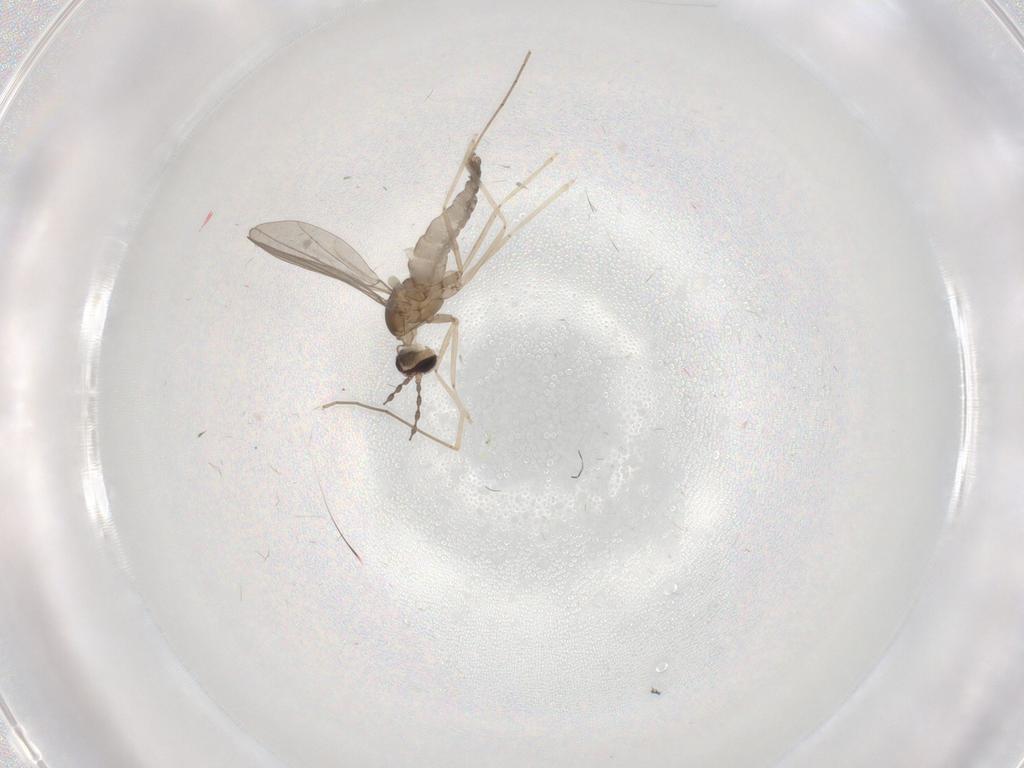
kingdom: Animalia
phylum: Arthropoda
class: Insecta
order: Diptera
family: Cecidomyiidae
